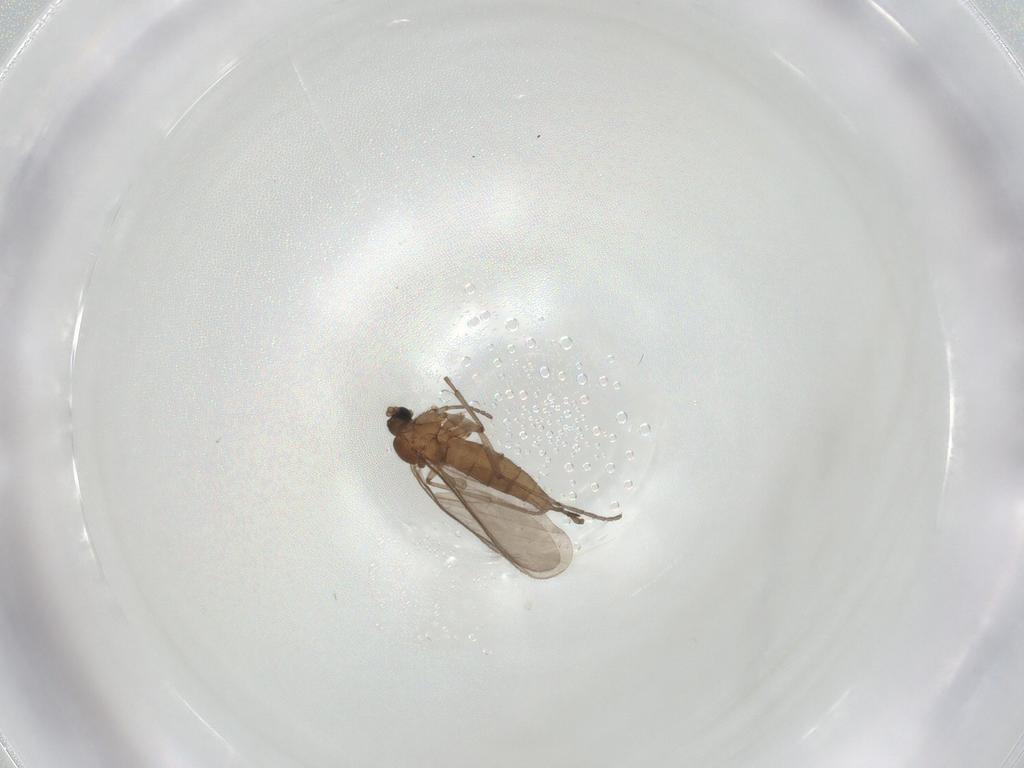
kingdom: Animalia
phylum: Arthropoda
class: Insecta
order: Diptera
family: Sciaridae
